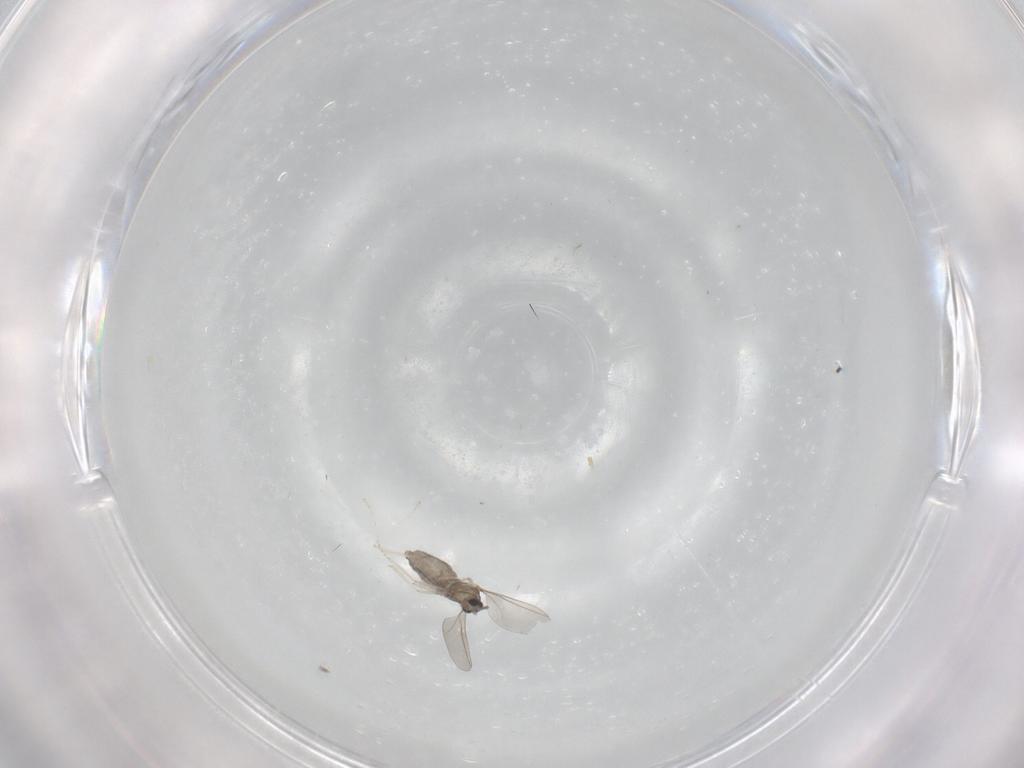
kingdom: Animalia
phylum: Arthropoda
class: Insecta
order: Diptera
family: Cecidomyiidae
